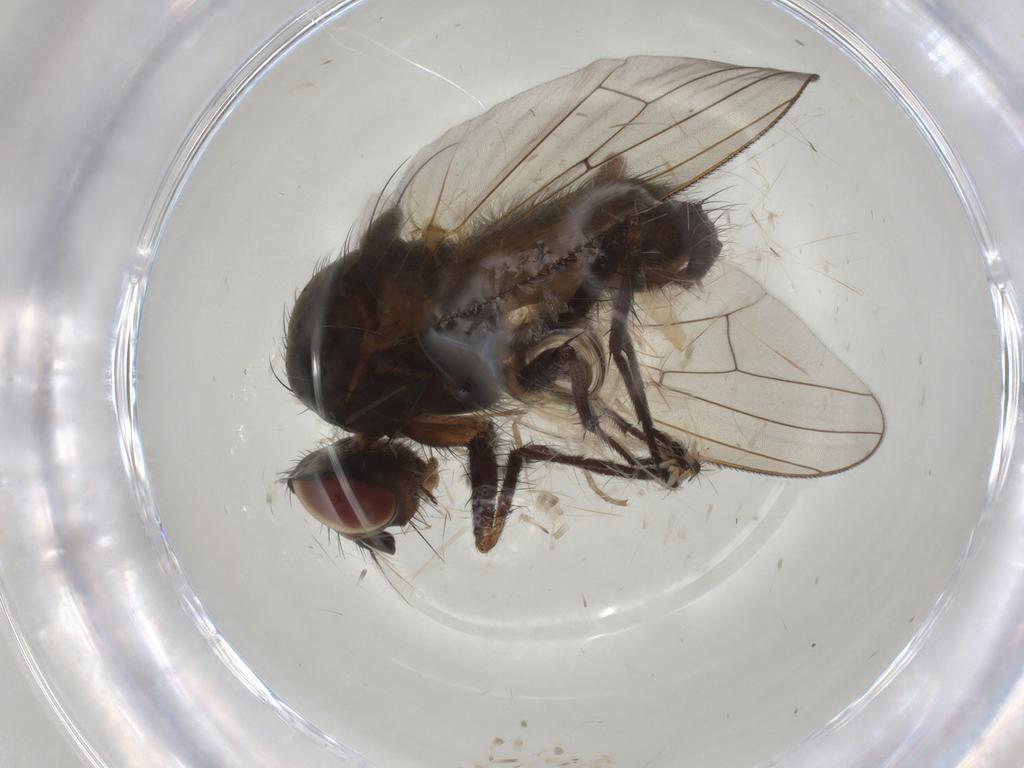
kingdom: Animalia
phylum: Arthropoda
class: Insecta
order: Diptera
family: Anthomyiidae
